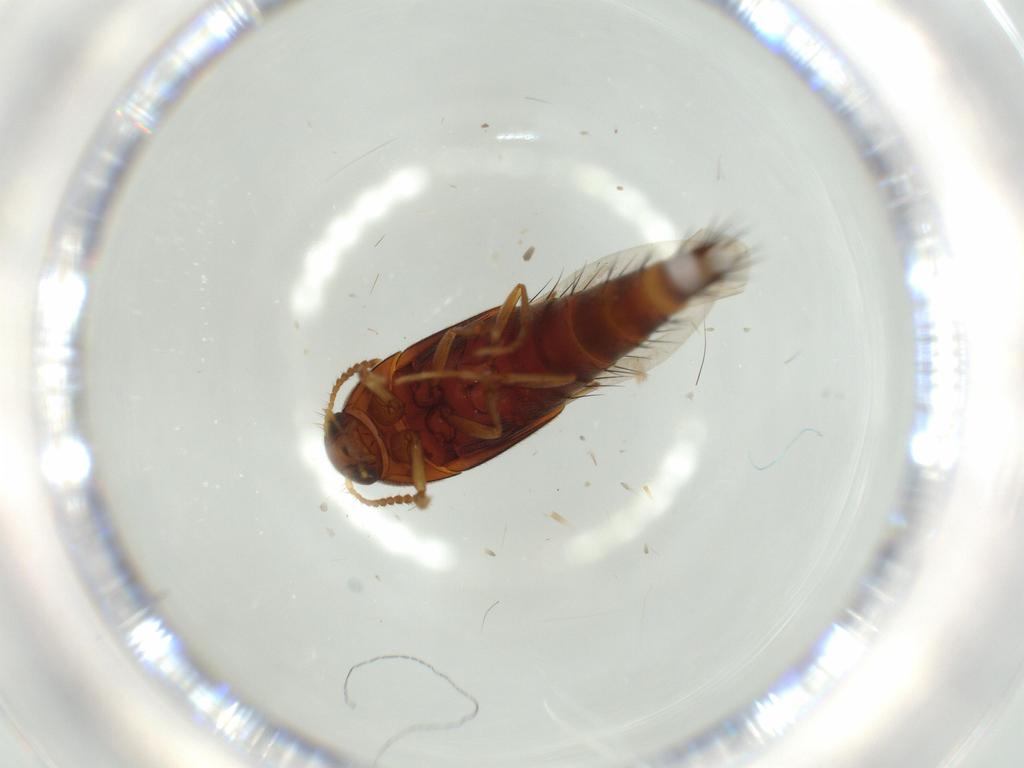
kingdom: Animalia
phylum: Arthropoda
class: Insecta
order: Coleoptera
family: Staphylinidae
